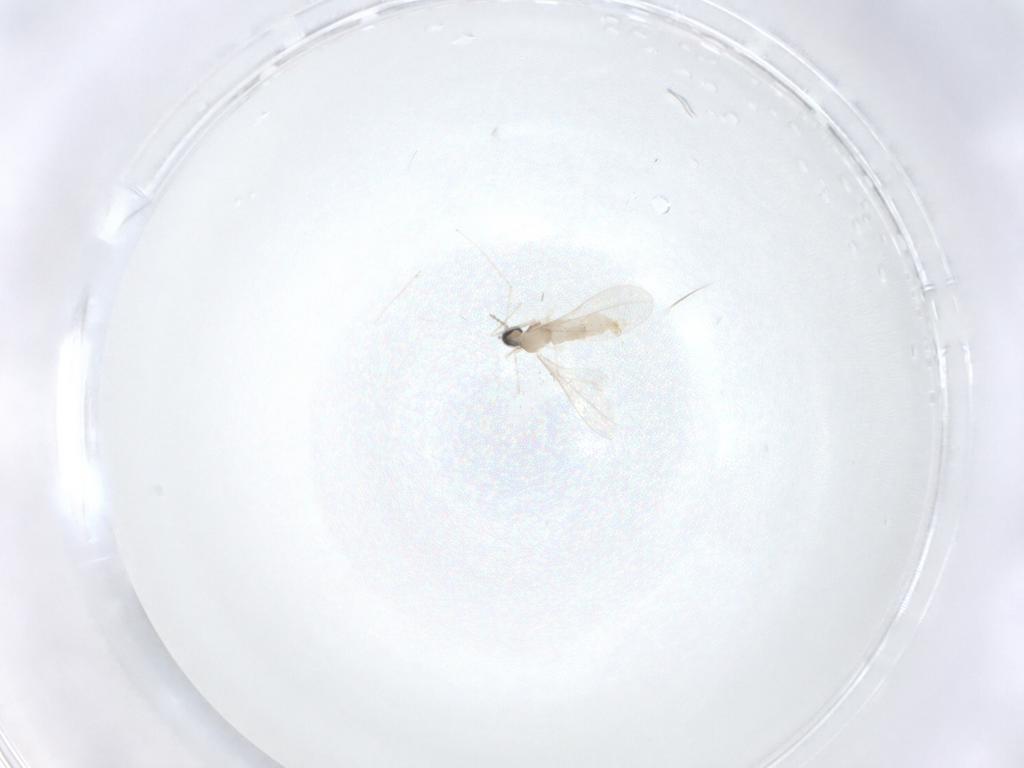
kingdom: Animalia
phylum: Arthropoda
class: Insecta
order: Diptera
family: Cecidomyiidae
